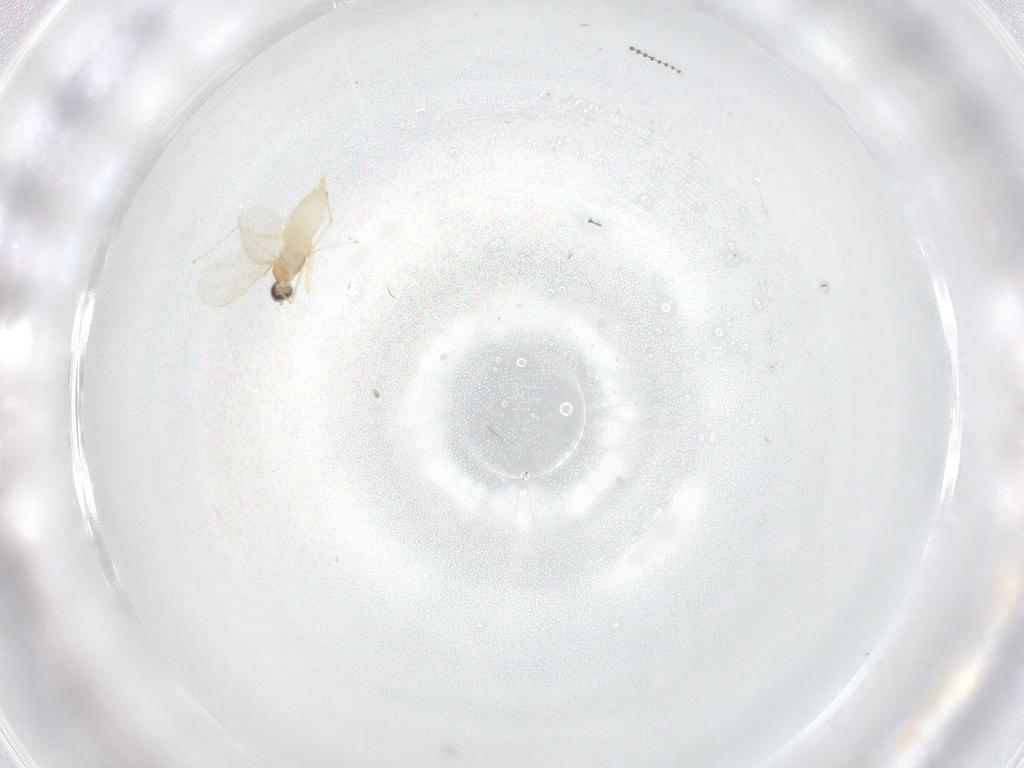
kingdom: Animalia
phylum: Arthropoda
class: Insecta
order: Diptera
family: Cecidomyiidae
